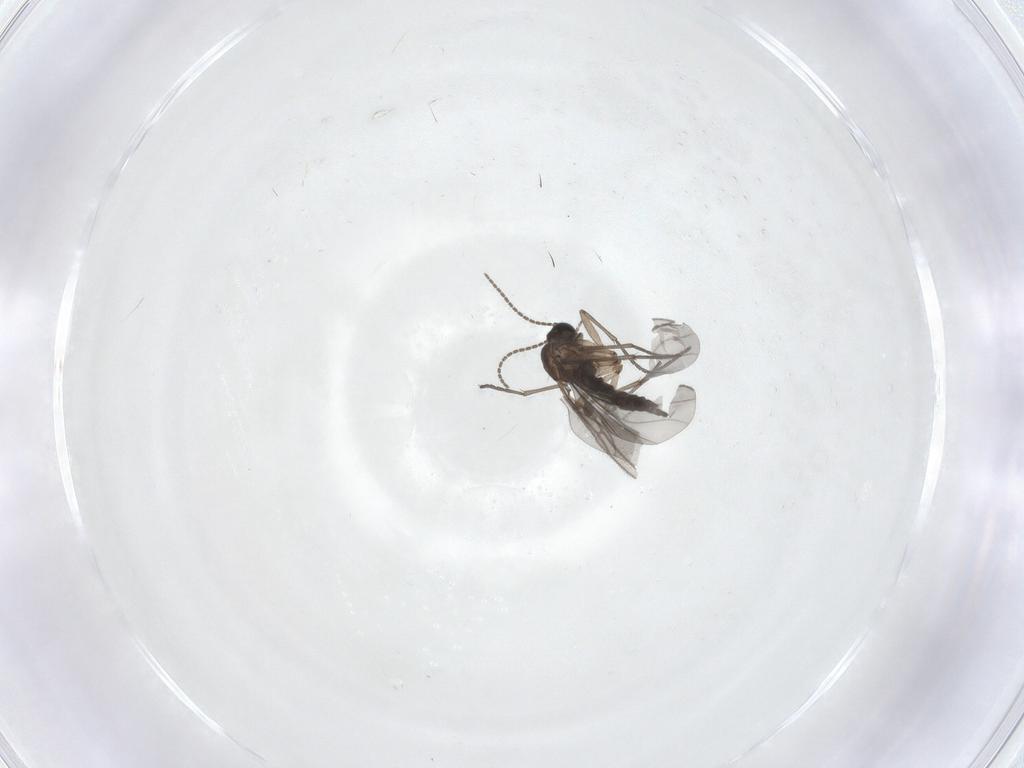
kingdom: Animalia
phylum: Arthropoda
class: Insecta
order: Diptera
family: Sciaridae
